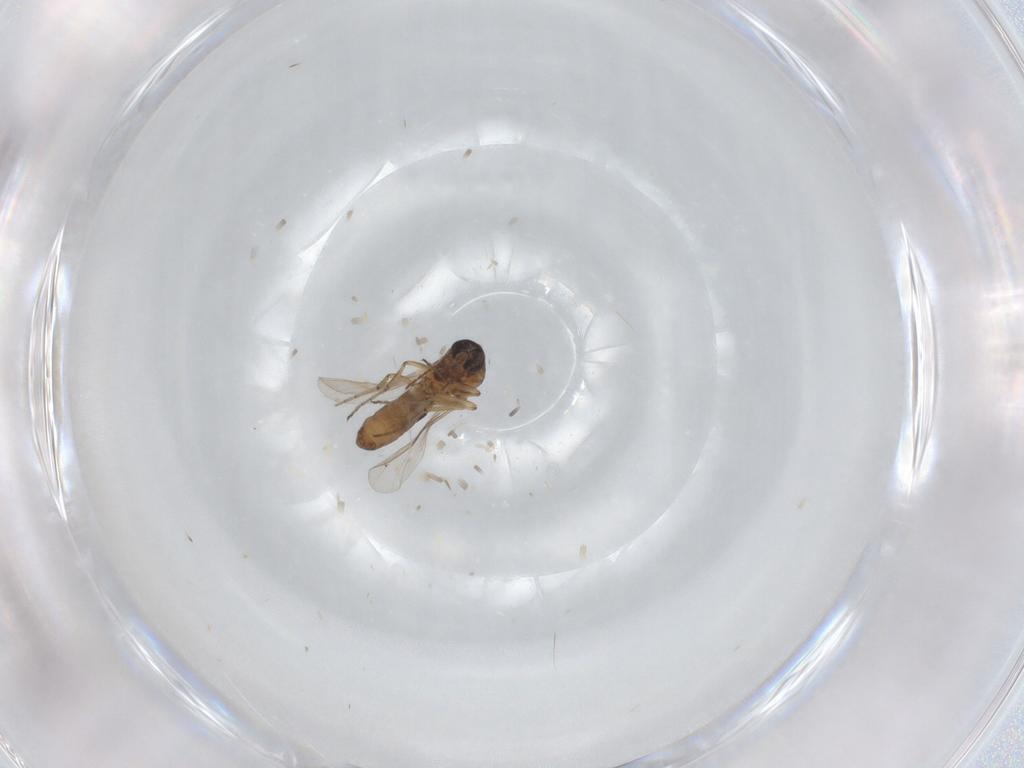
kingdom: Animalia
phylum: Arthropoda
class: Insecta
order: Diptera
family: Ceratopogonidae
